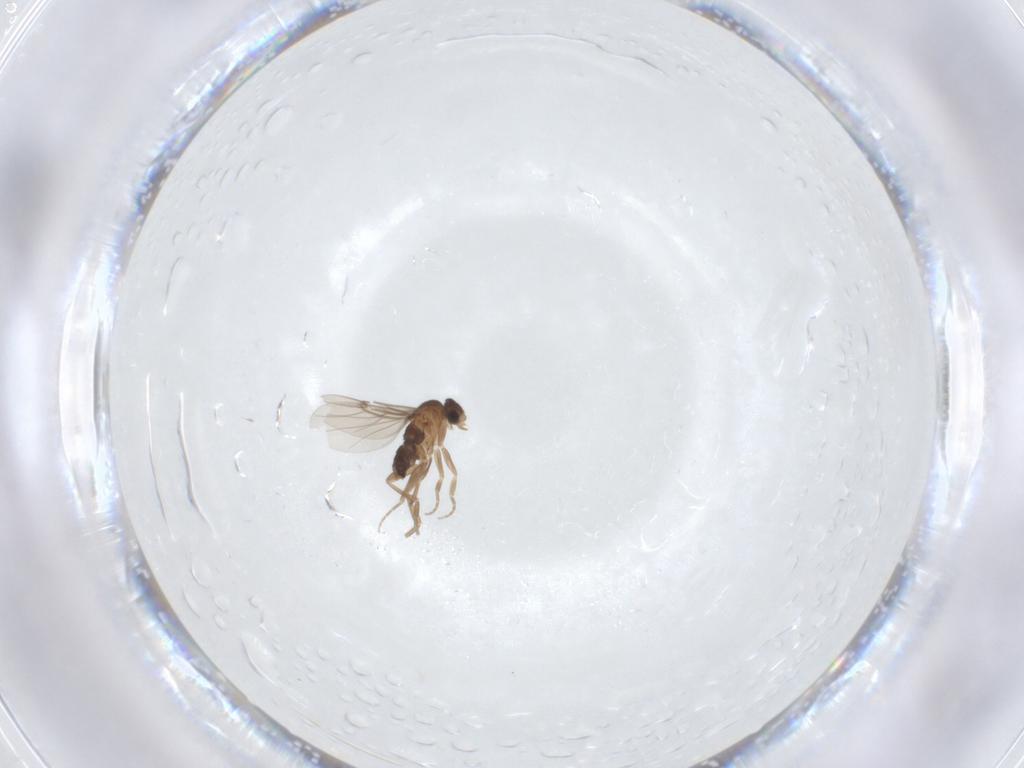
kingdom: Animalia
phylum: Arthropoda
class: Insecta
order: Diptera
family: Phoridae
